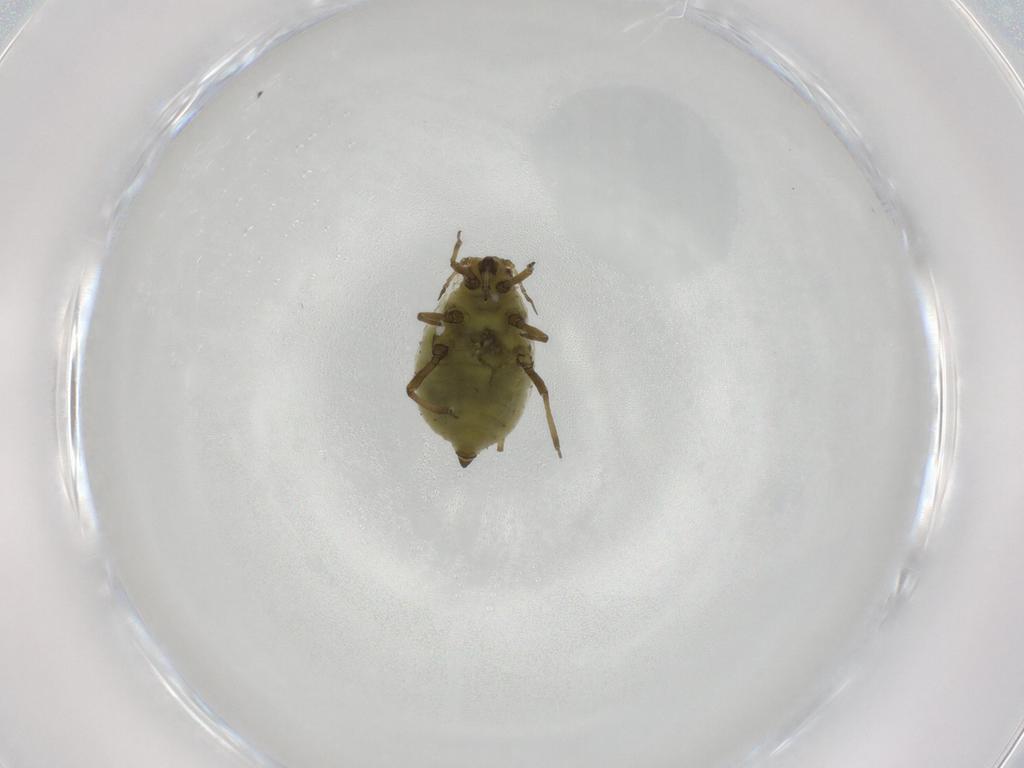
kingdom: Animalia
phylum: Arthropoda
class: Insecta
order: Hemiptera
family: Aphididae
